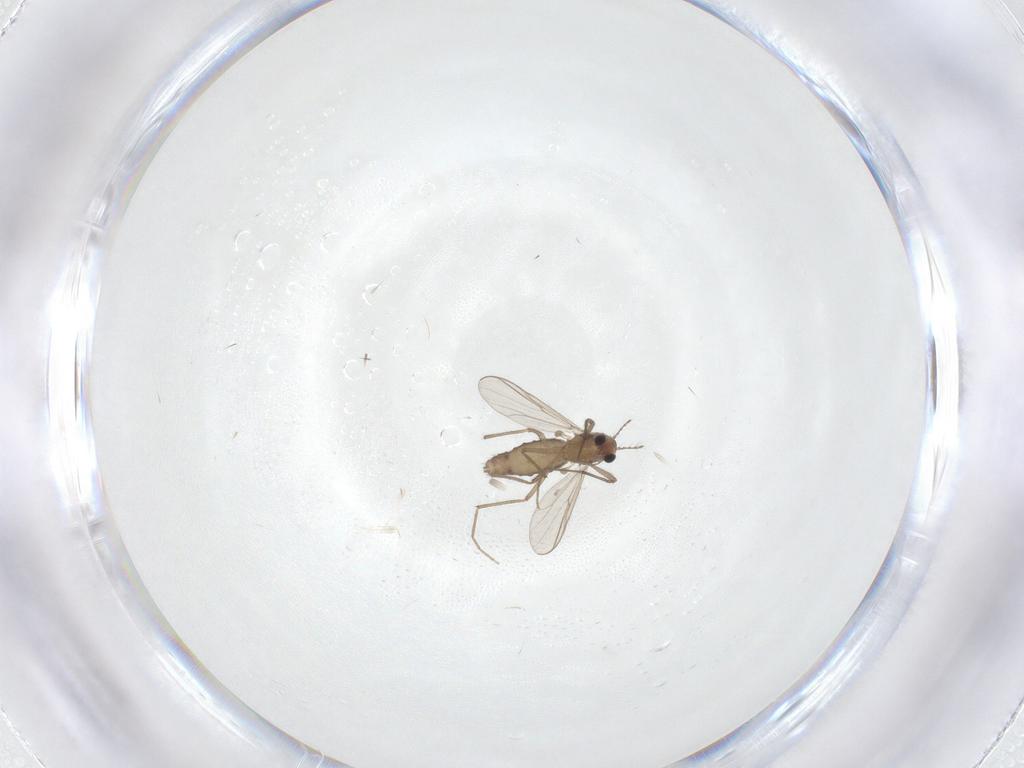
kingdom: Animalia
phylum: Arthropoda
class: Insecta
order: Diptera
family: Chironomidae
